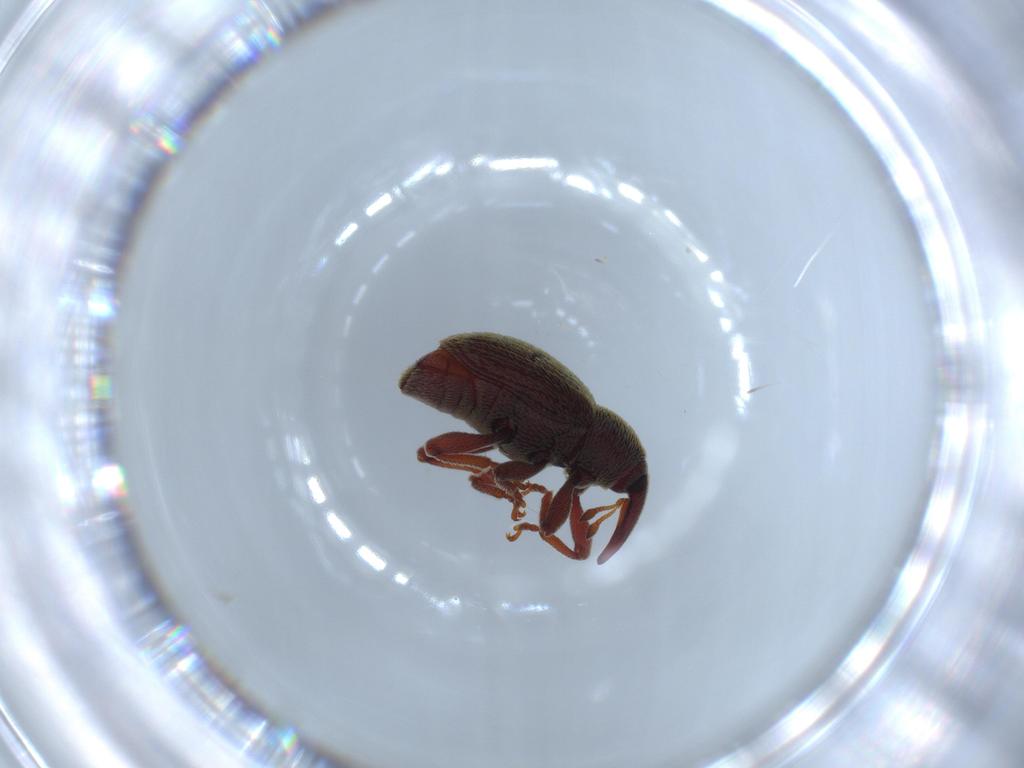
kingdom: Animalia
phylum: Arthropoda
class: Insecta
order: Coleoptera
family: Curculionidae
